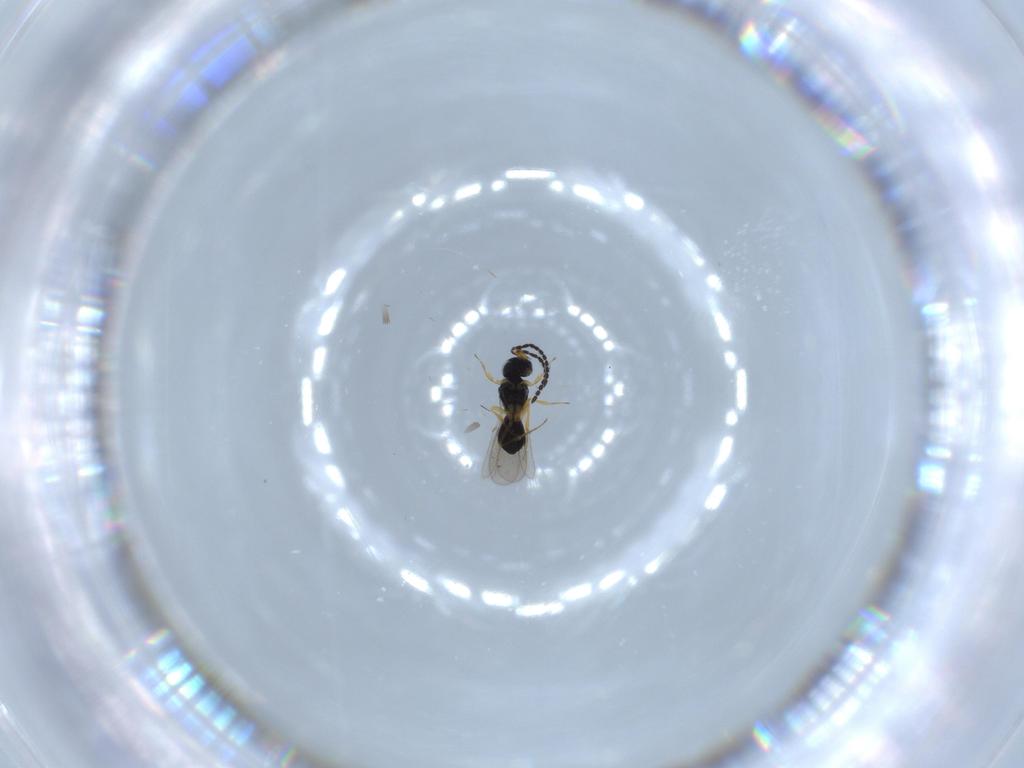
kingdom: Animalia
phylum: Arthropoda
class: Insecta
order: Hymenoptera
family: Scelionidae
